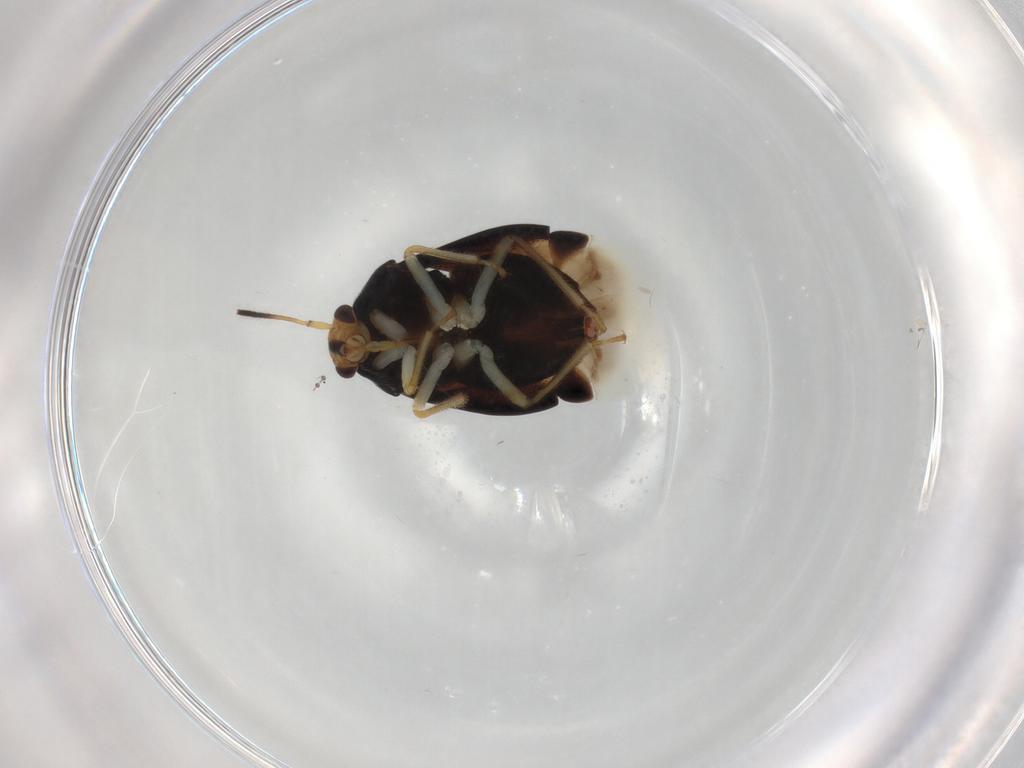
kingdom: Animalia
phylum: Arthropoda
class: Insecta
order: Hemiptera
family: Miridae
